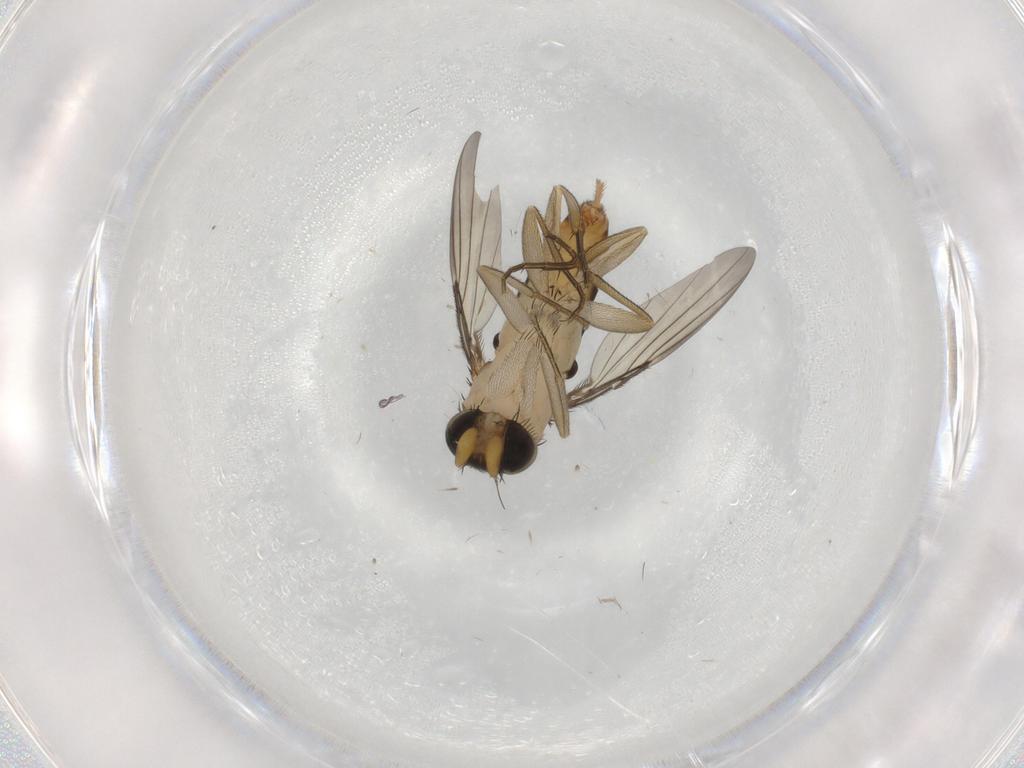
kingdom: Animalia
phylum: Arthropoda
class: Insecta
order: Diptera
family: Phoridae
